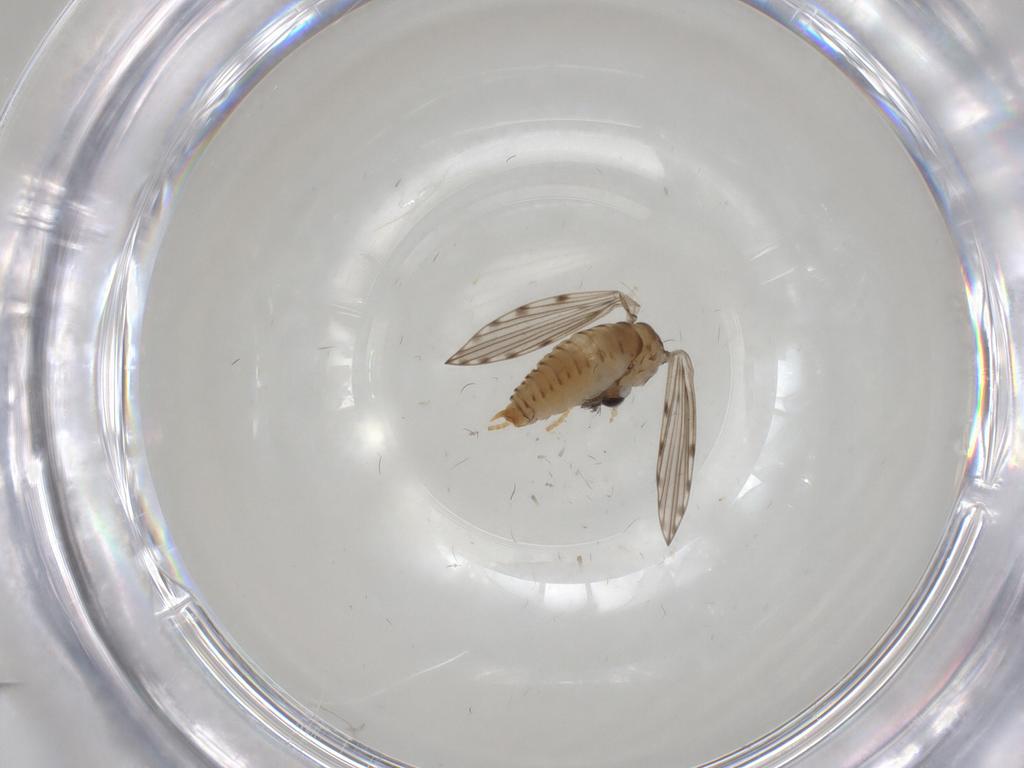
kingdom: Animalia
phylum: Arthropoda
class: Insecta
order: Diptera
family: Psychodidae
